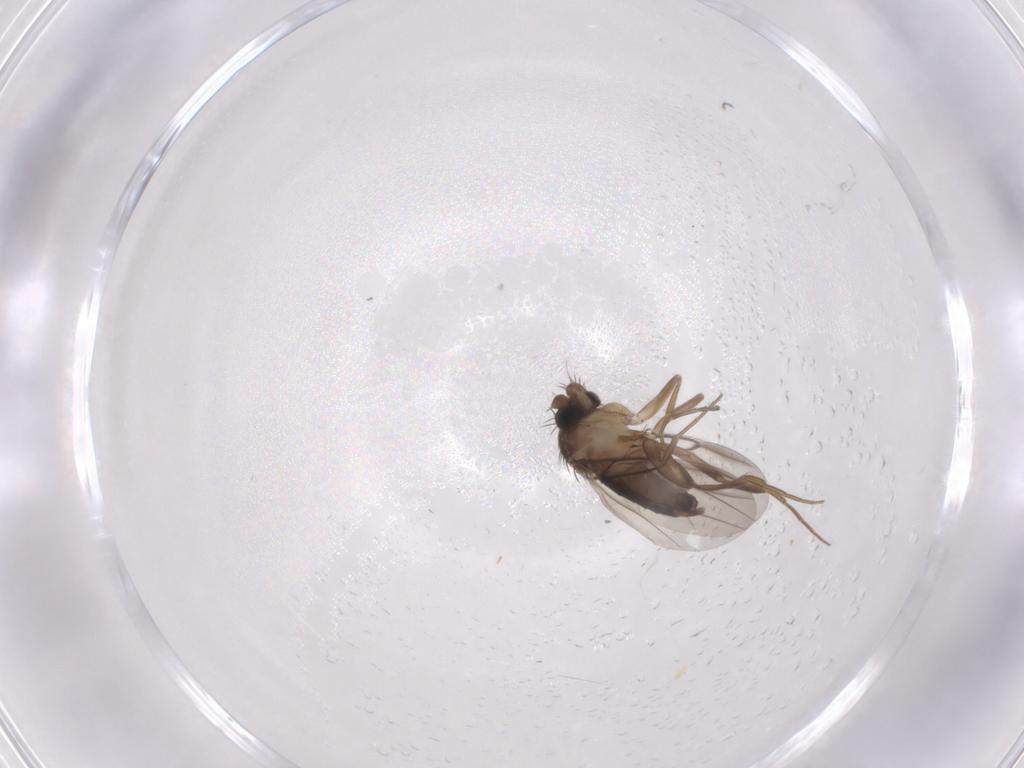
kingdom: Animalia
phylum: Arthropoda
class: Insecta
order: Diptera
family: Phoridae
